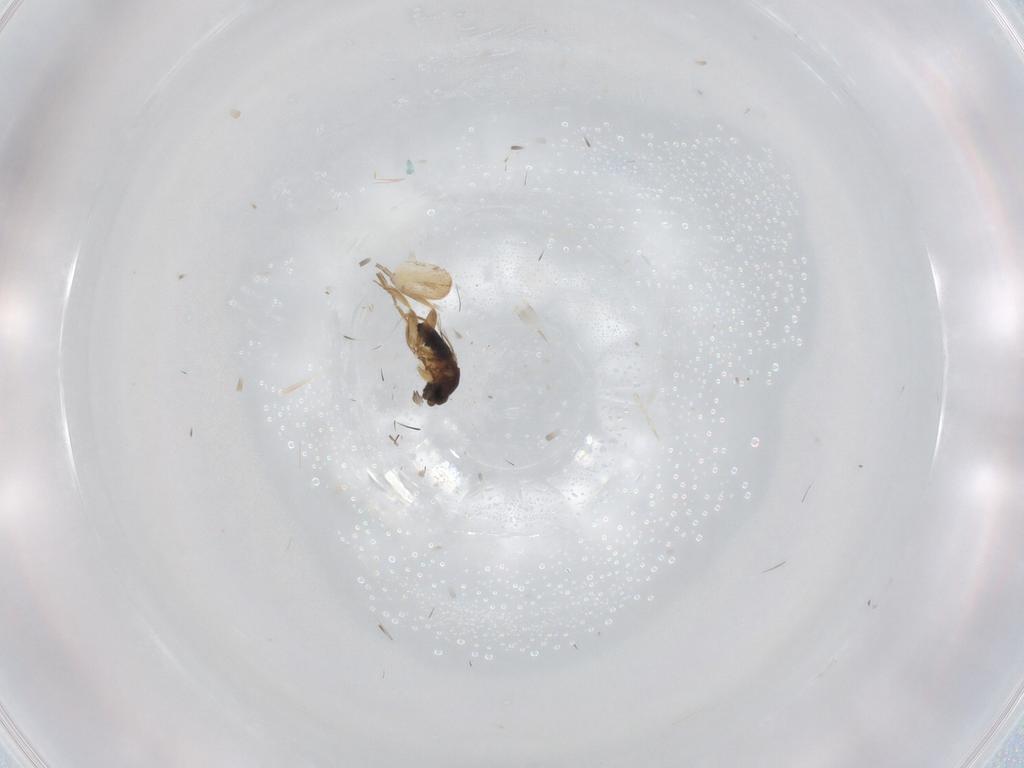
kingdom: Animalia
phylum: Arthropoda
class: Insecta
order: Diptera
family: Phoridae
